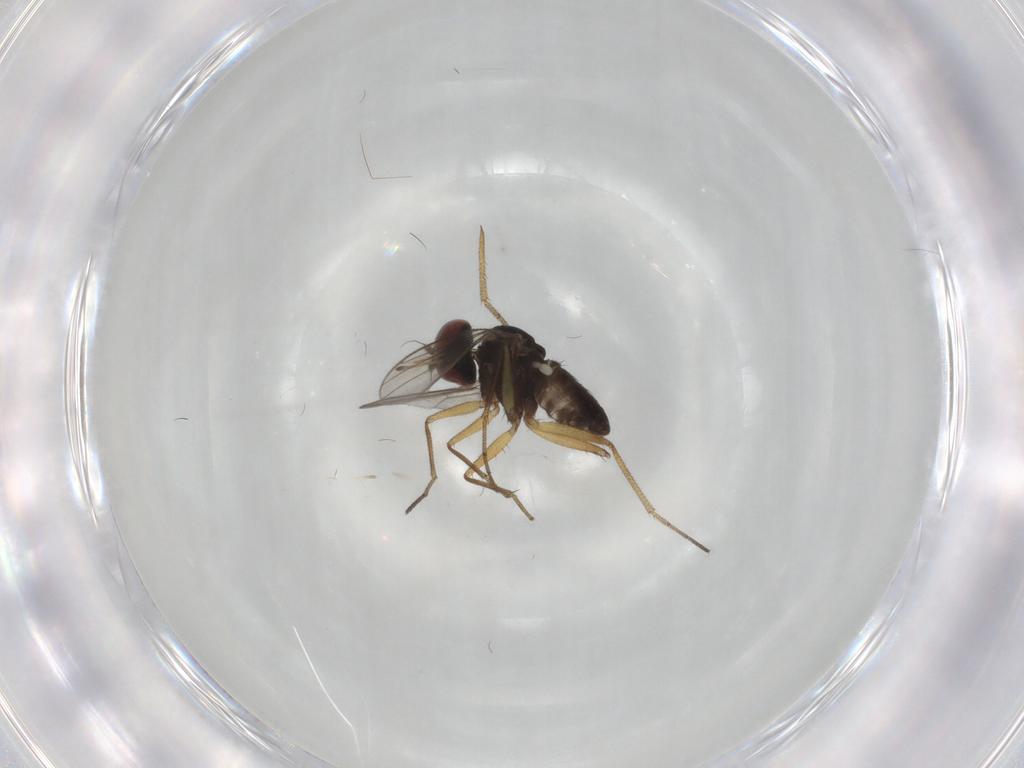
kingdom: Animalia
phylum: Arthropoda
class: Insecta
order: Diptera
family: Dolichopodidae
